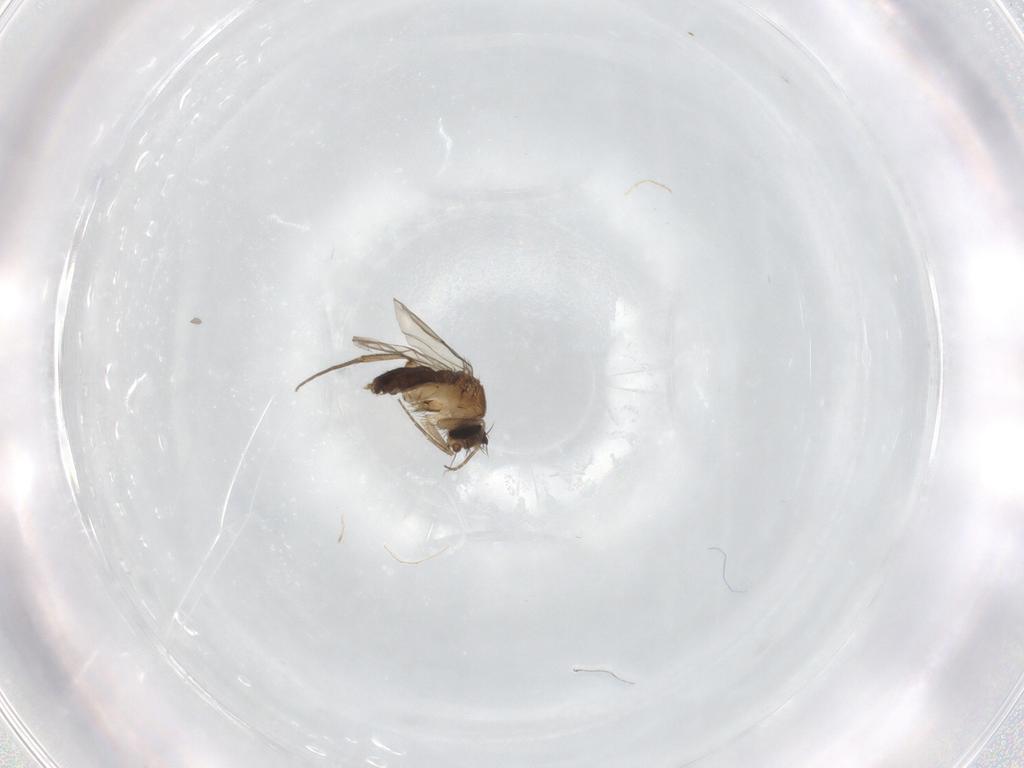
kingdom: Animalia
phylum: Arthropoda
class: Insecta
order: Diptera
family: Phoridae
